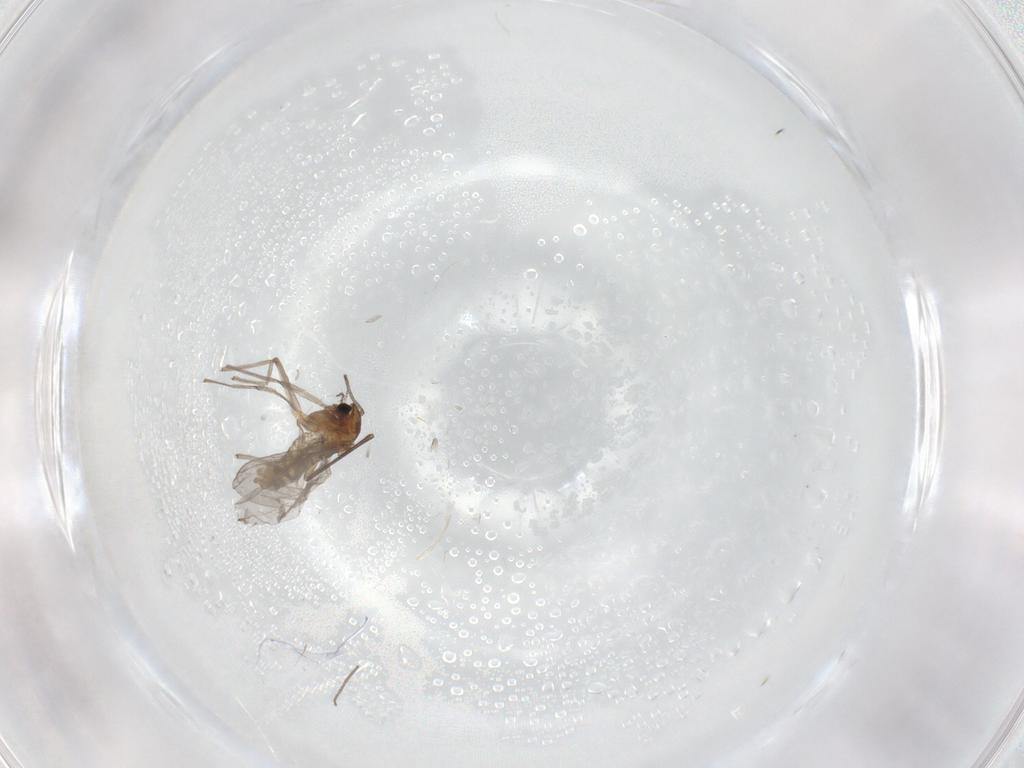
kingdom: Animalia
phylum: Arthropoda
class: Insecta
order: Diptera
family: Chironomidae
